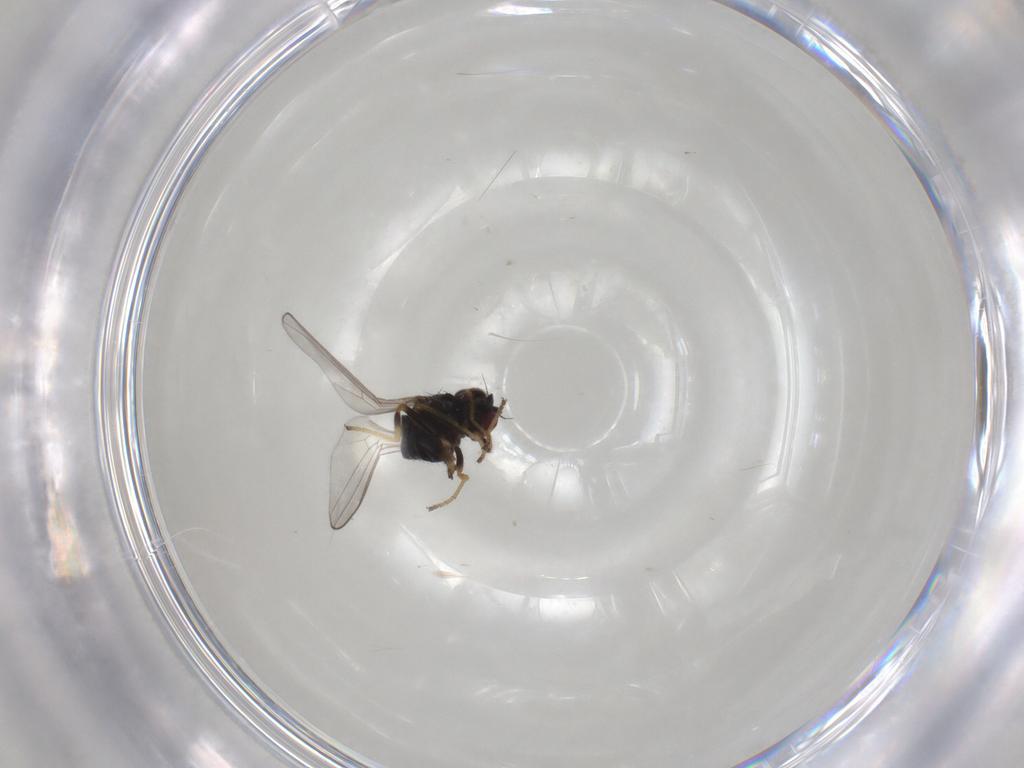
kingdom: Animalia
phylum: Arthropoda
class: Insecta
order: Diptera
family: Chloropidae
